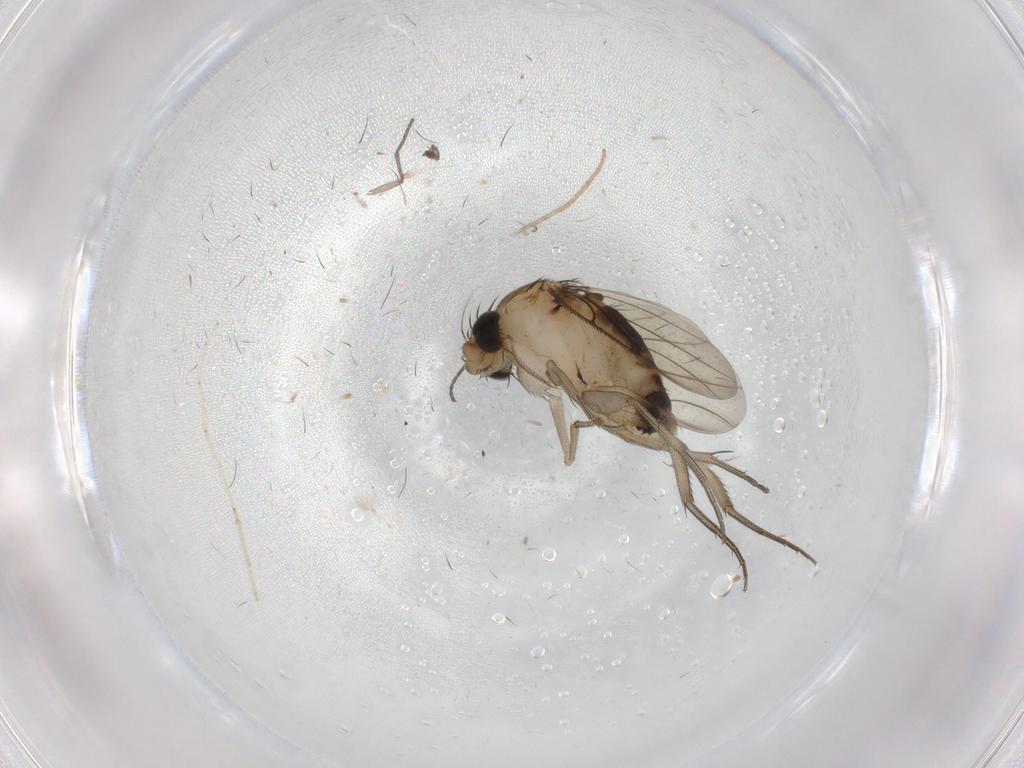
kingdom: Animalia
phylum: Arthropoda
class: Insecta
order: Diptera
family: Phoridae
